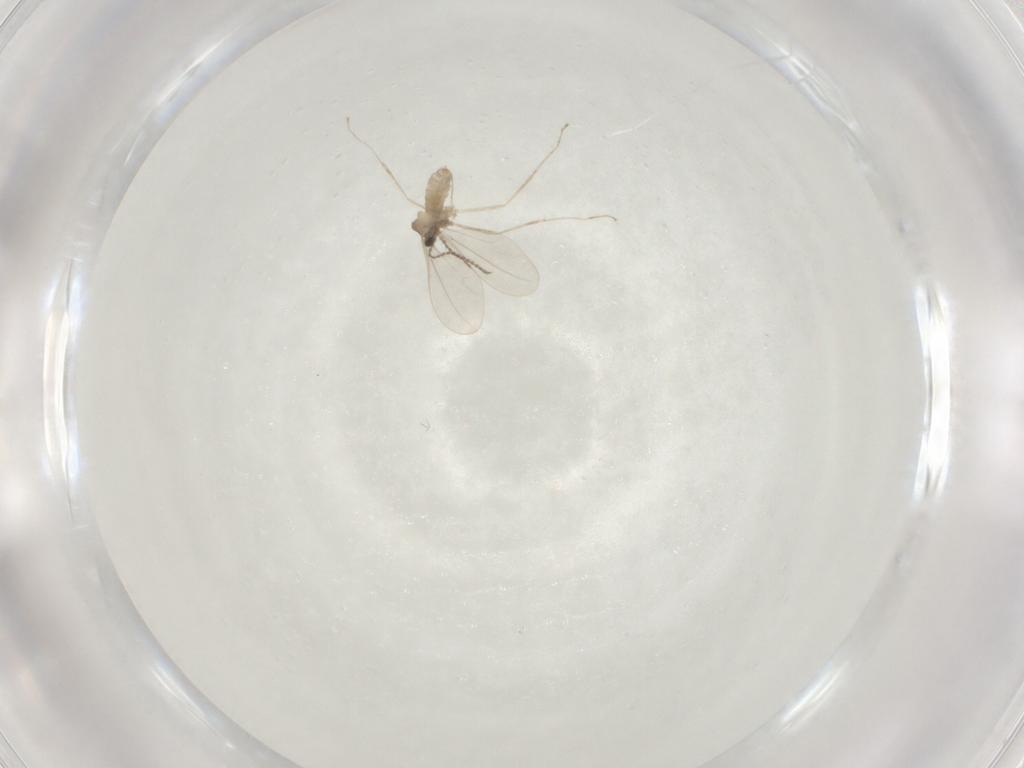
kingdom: Animalia
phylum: Arthropoda
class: Insecta
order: Diptera
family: Cecidomyiidae
